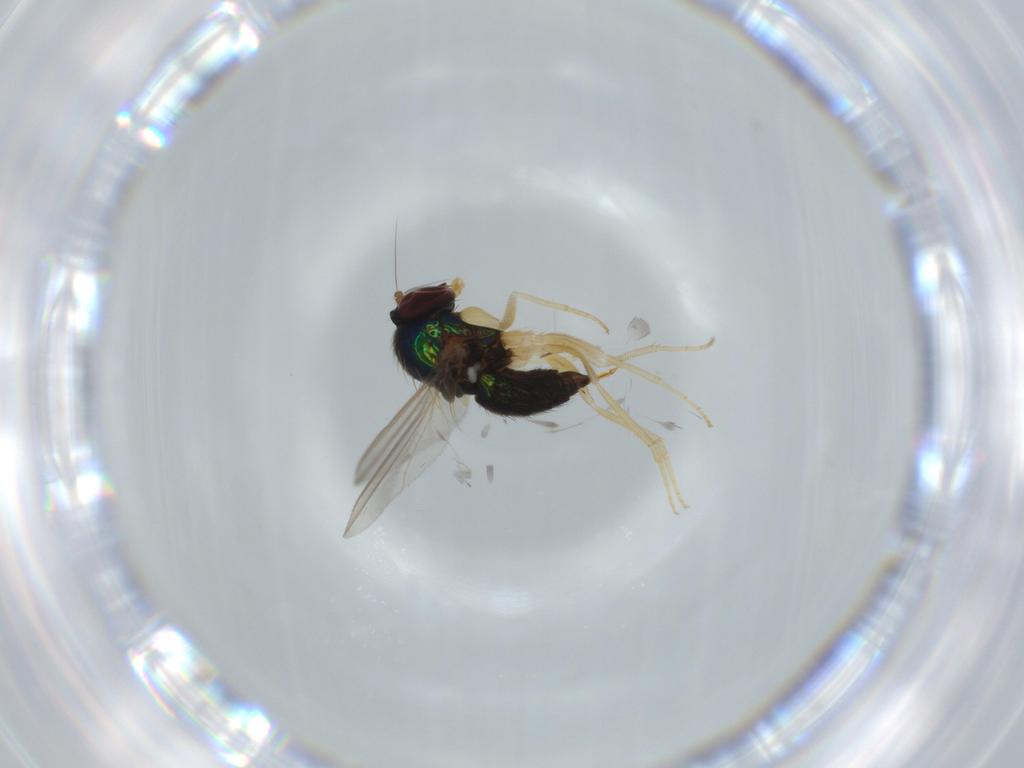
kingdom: Animalia
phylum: Arthropoda
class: Insecta
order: Diptera
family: Dolichopodidae
